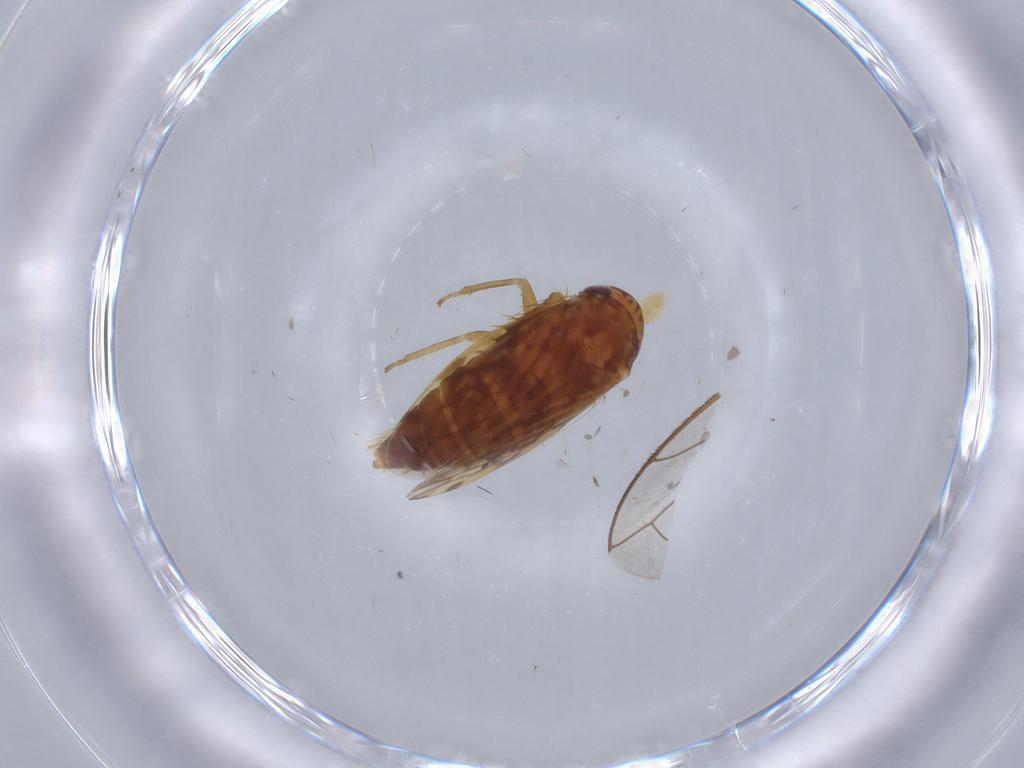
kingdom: Animalia
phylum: Arthropoda
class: Insecta
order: Hemiptera
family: Cicadellidae
